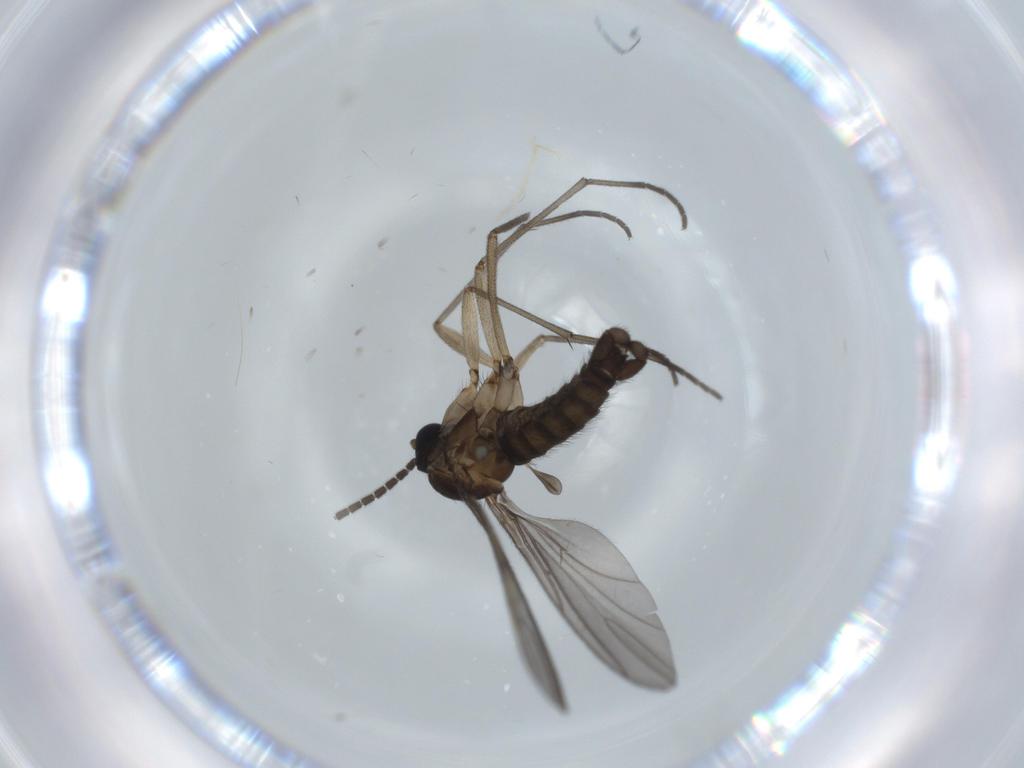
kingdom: Animalia
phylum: Arthropoda
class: Insecta
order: Diptera
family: Sciaridae
